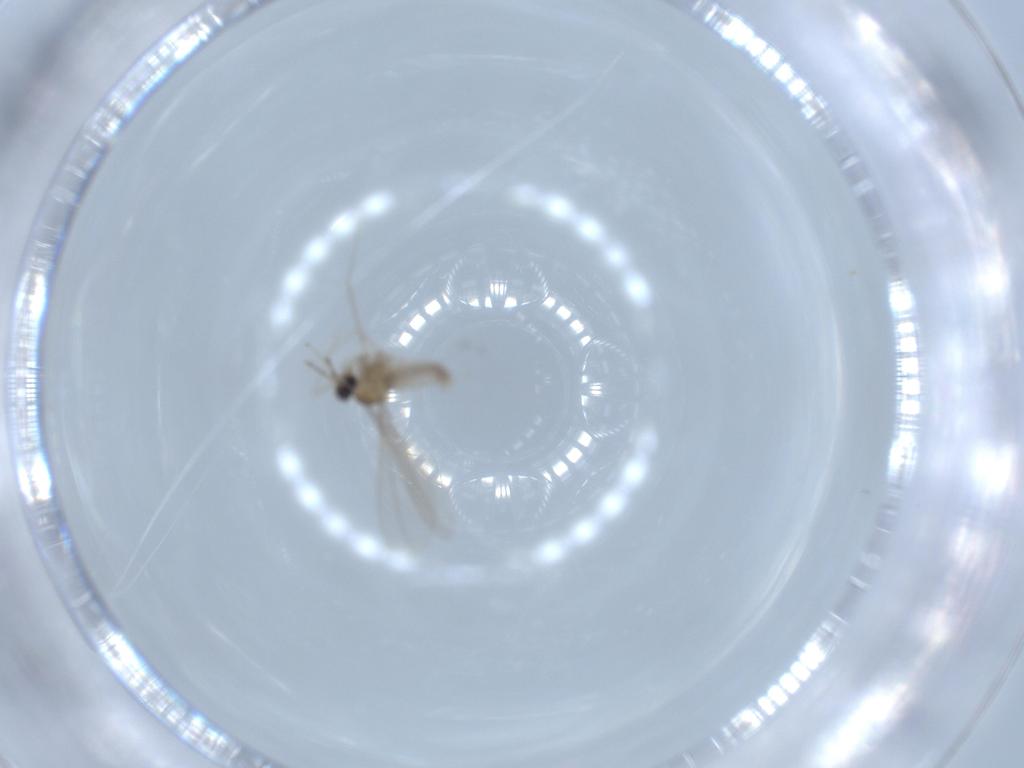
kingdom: Animalia
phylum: Arthropoda
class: Insecta
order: Diptera
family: Cecidomyiidae
